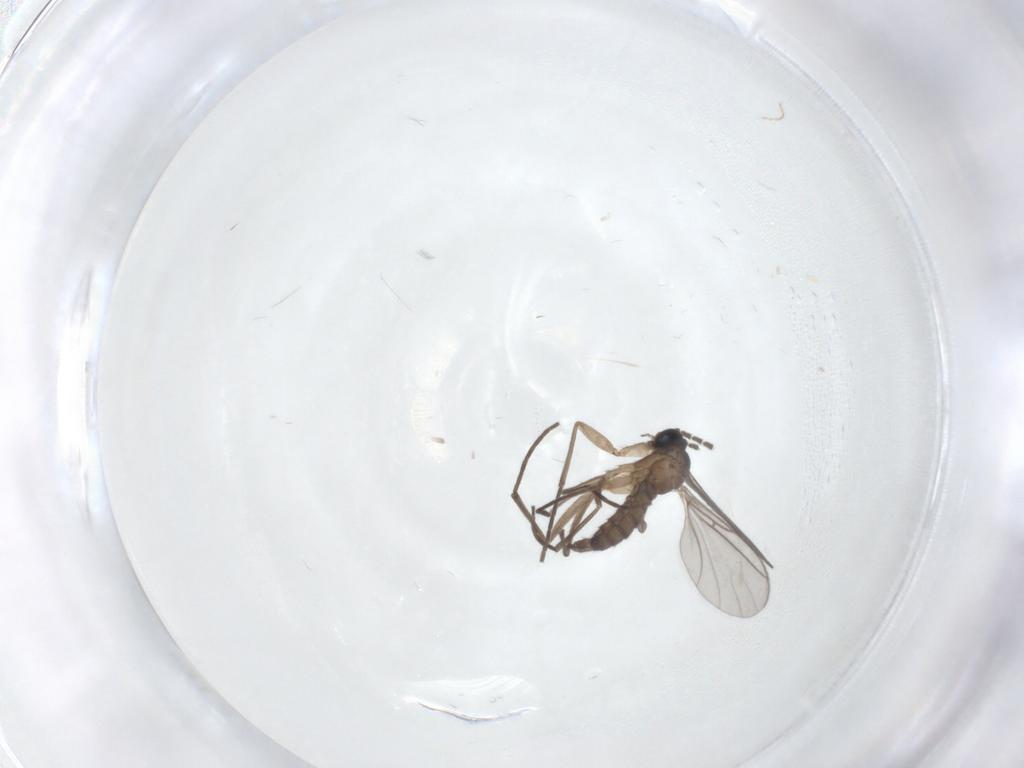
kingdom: Animalia
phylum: Arthropoda
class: Insecta
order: Diptera
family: Sciaridae
